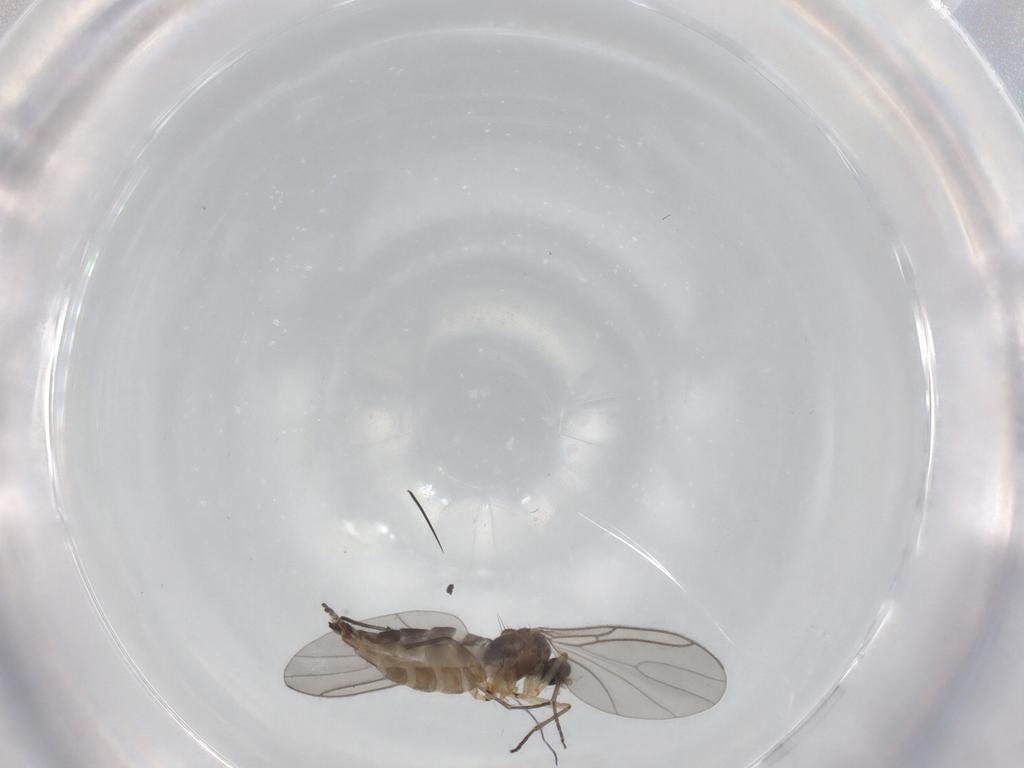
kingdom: Animalia
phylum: Arthropoda
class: Insecta
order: Diptera
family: Sciaridae
